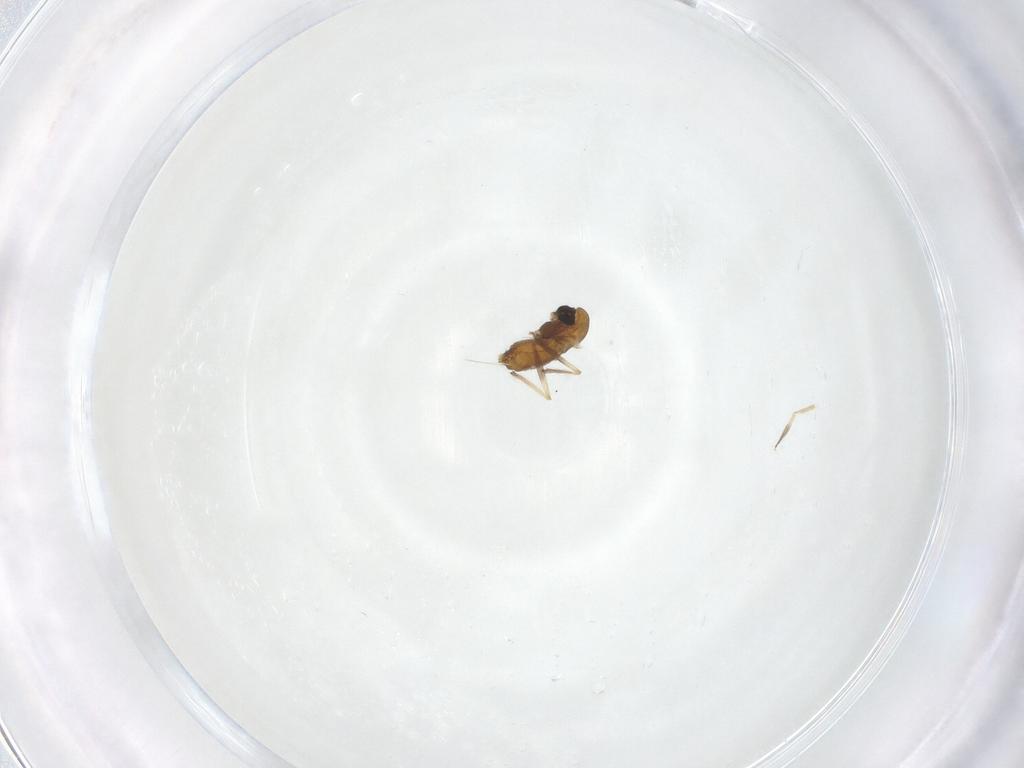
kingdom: Animalia
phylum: Arthropoda
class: Insecta
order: Diptera
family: Chironomidae
